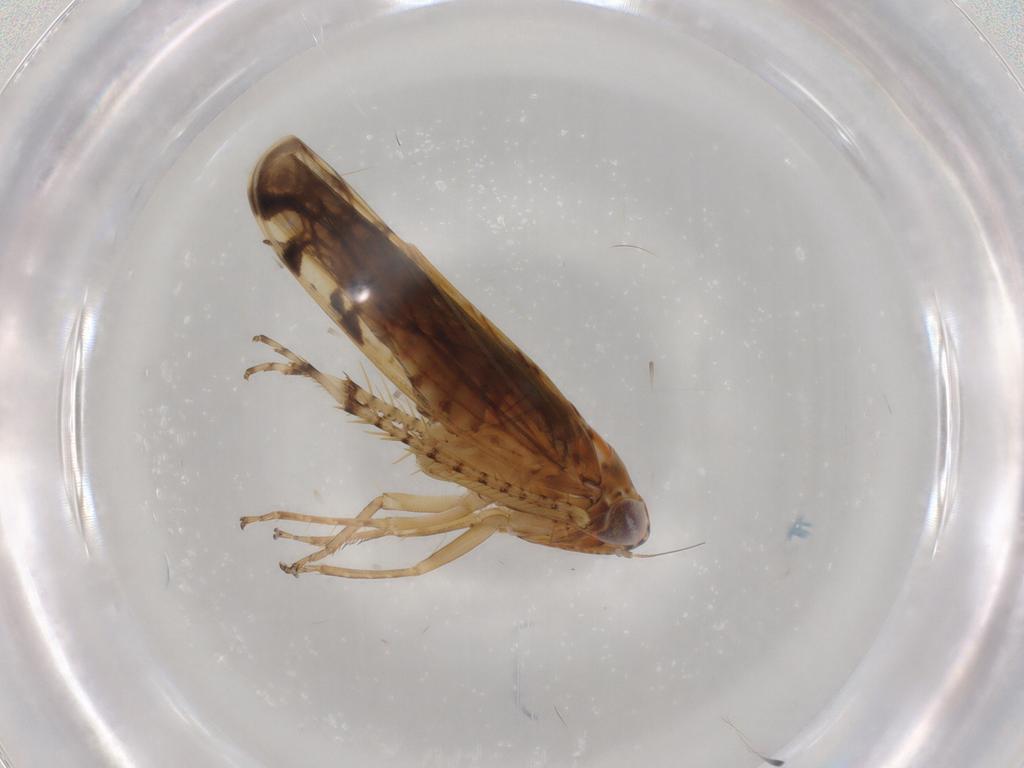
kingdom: Animalia
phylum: Arthropoda
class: Insecta
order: Hemiptera
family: Cicadellidae
